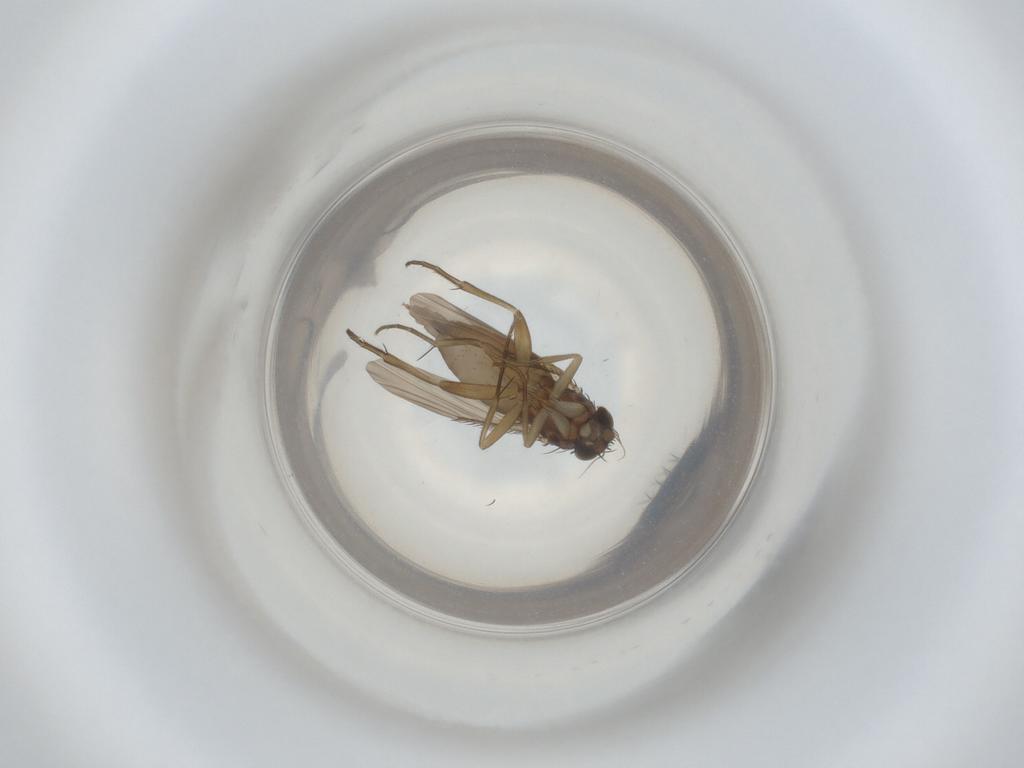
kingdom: Animalia
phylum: Arthropoda
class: Insecta
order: Diptera
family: Phoridae
